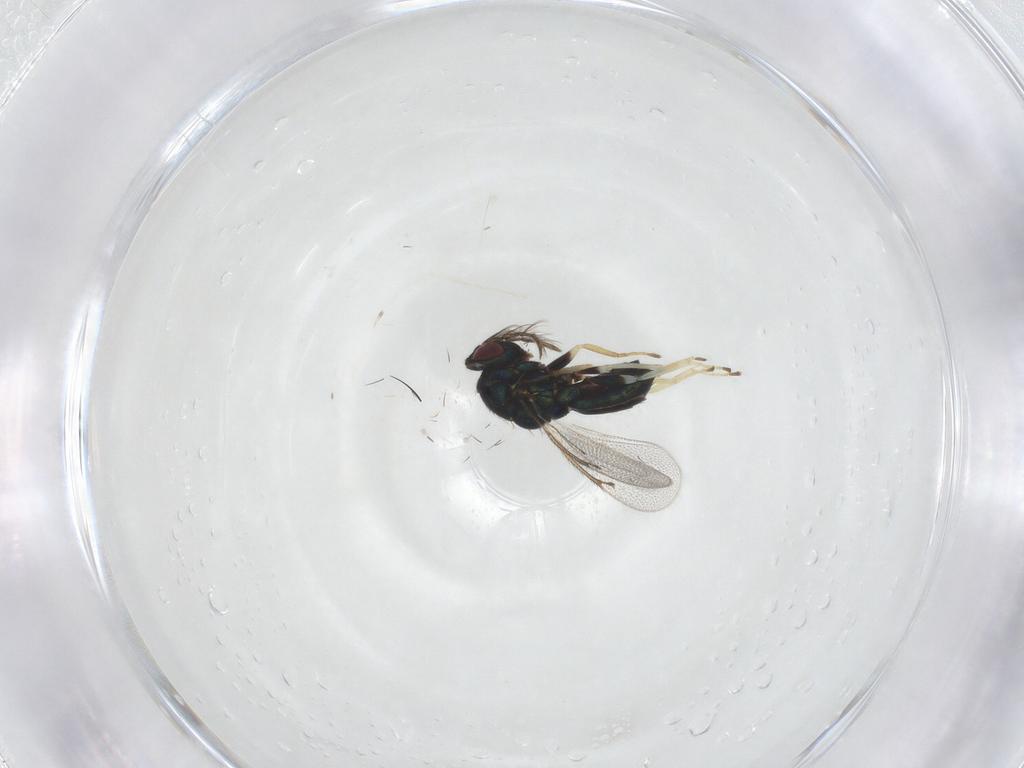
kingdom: Animalia
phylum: Arthropoda
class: Insecta
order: Hymenoptera
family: Eulophidae
